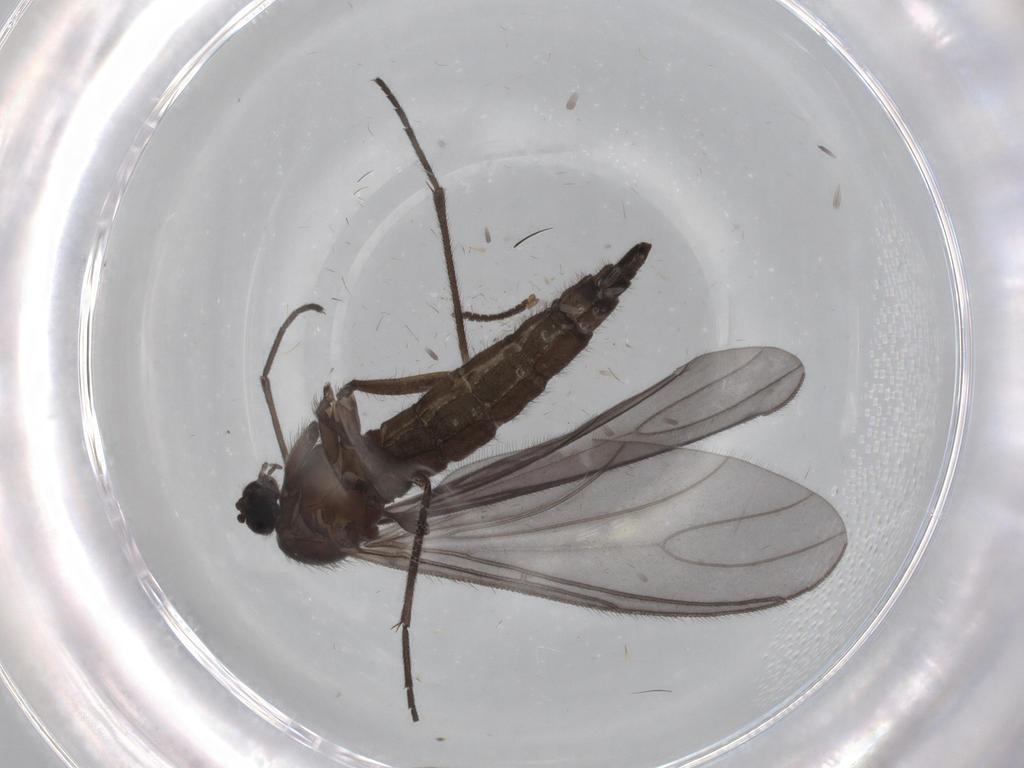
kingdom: Animalia
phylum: Arthropoda
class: Insecta
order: Diptera
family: Sciaridae
